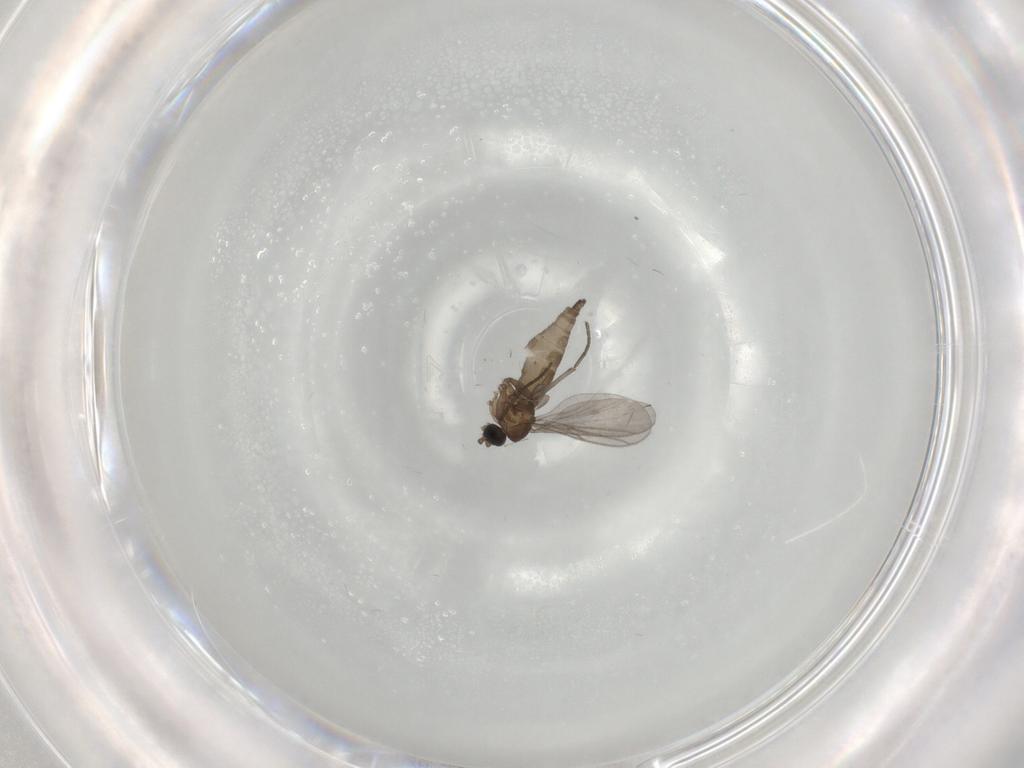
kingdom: Animalia
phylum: Arthropoda
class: Insecta
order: Diptera
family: Sciaridae
